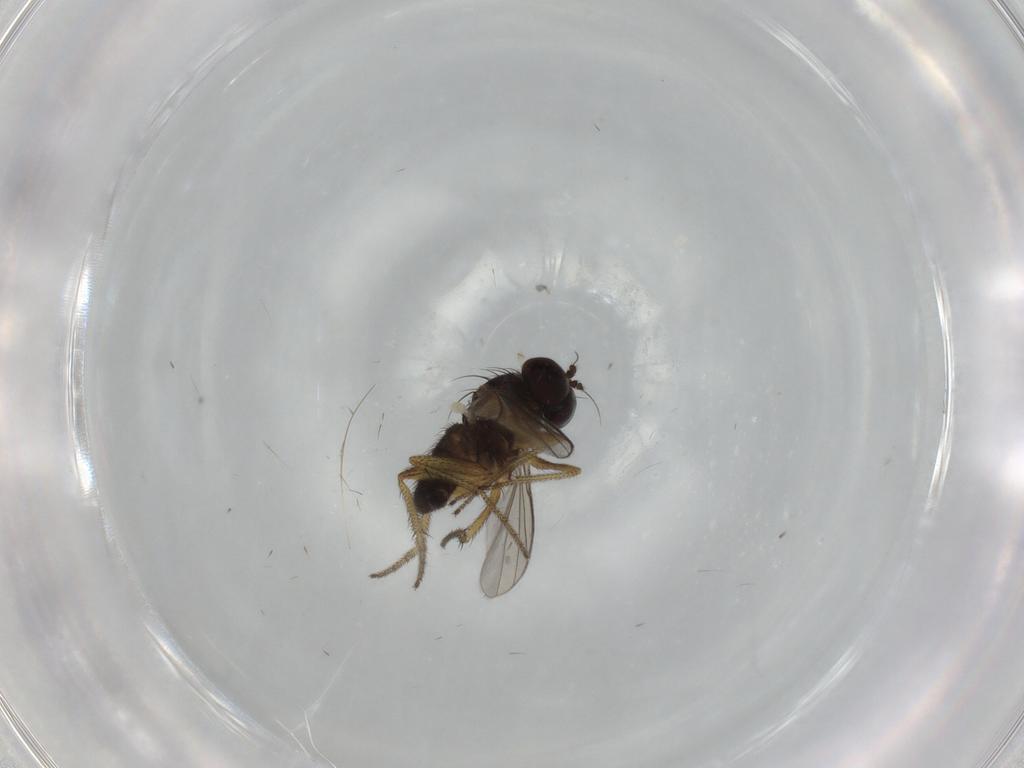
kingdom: Animalia
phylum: Arthropoda
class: Insecta
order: Diptera
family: Dolichopodidae
